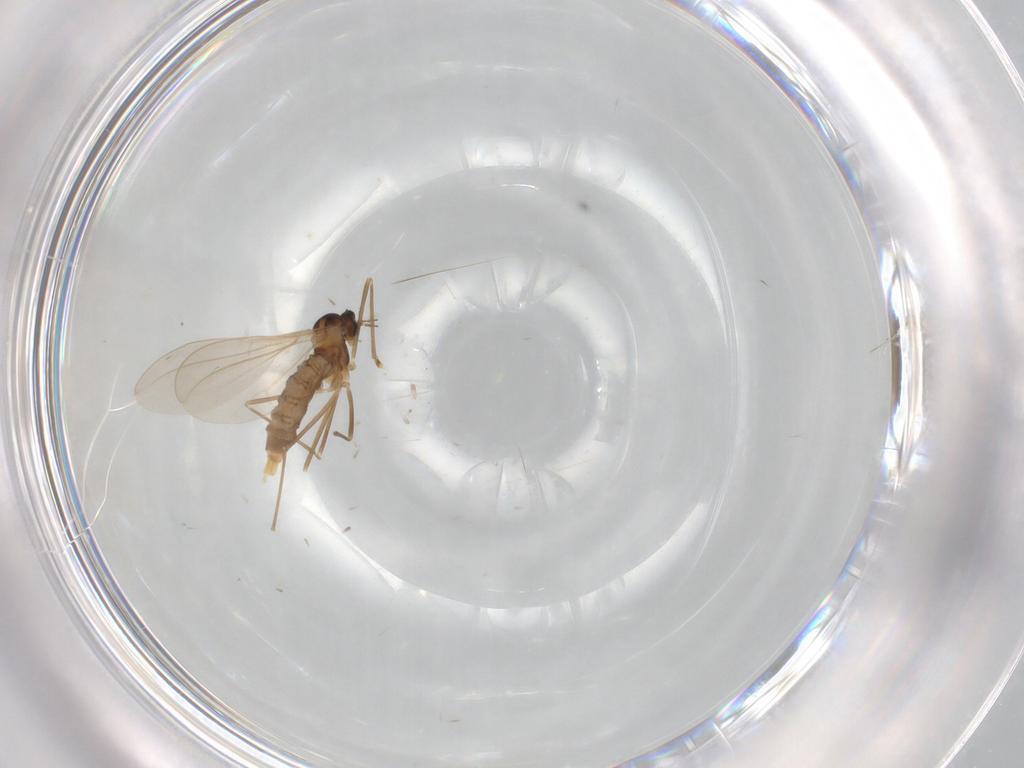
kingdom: Animalia
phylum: Arthropoda
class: Insecta
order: Diptera
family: Cecidomyiidae
